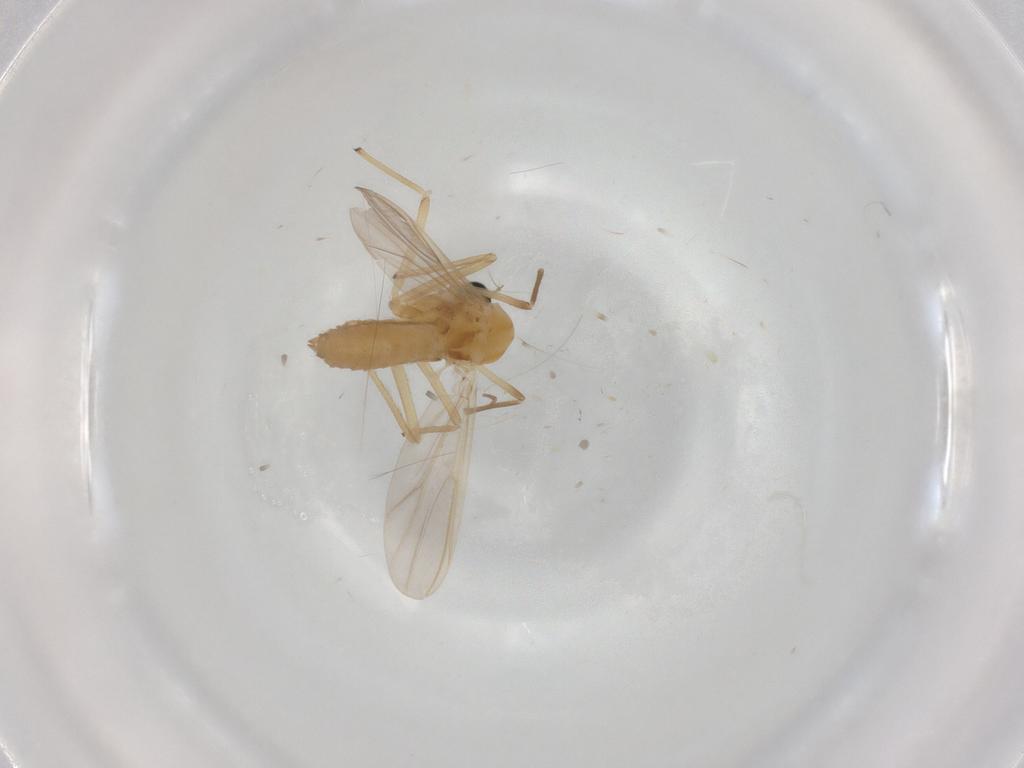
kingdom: Animalia
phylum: Arthropoda
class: Insecta
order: Diptera
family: Chironomidae
